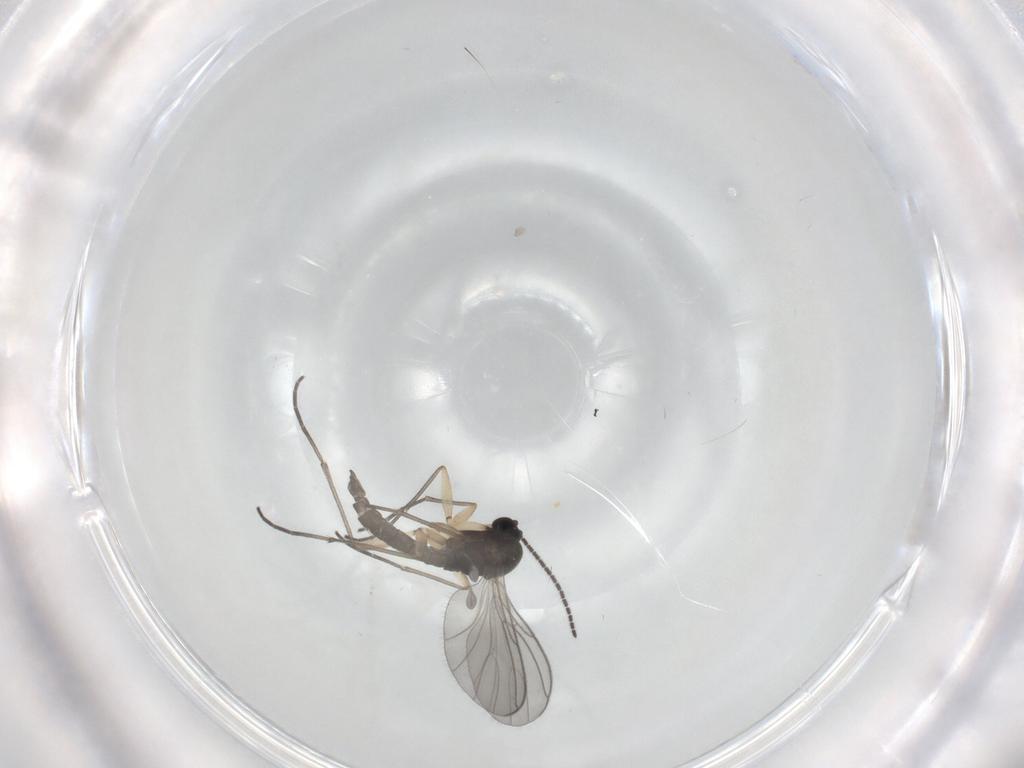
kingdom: Animalia
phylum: Arthropoda
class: Insecta
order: Diptera
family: Sciaridae
